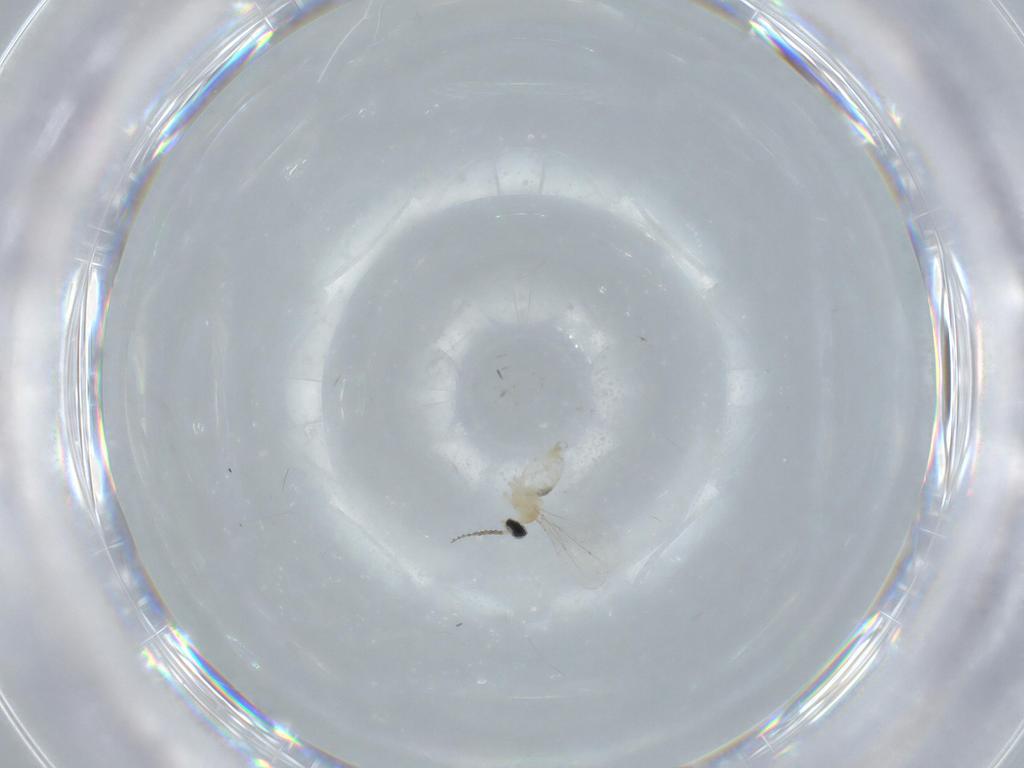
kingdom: Animalia
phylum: Arthropoda
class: Insecta
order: Diptera
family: Cecidomyiidae
